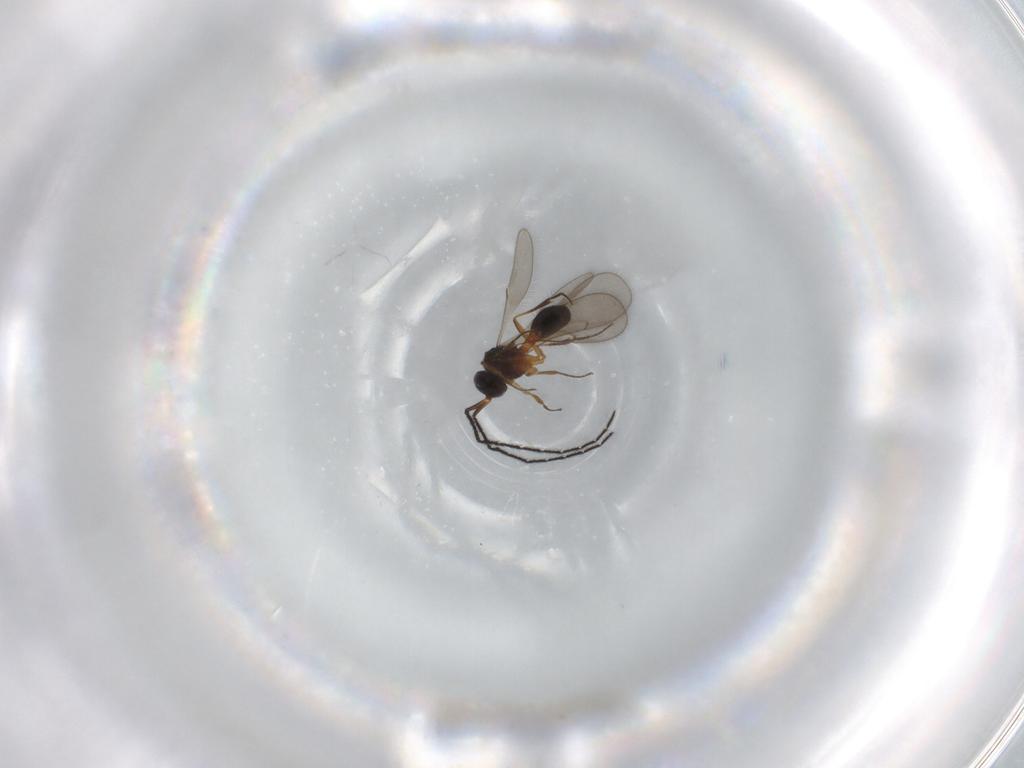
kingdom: Animalia
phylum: Arthropoda
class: Insecta
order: Hymenoptera
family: Scelionidae
